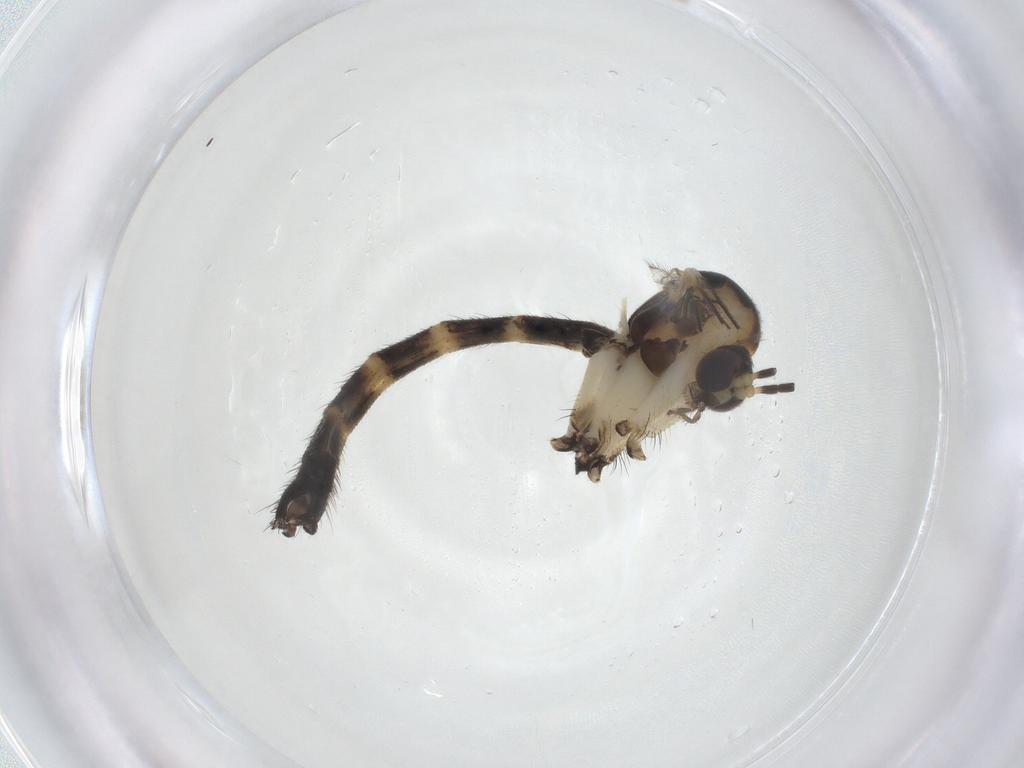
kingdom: Animalia
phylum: Arthropoda
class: Insecta
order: Diptera
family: Mycetophilidae
